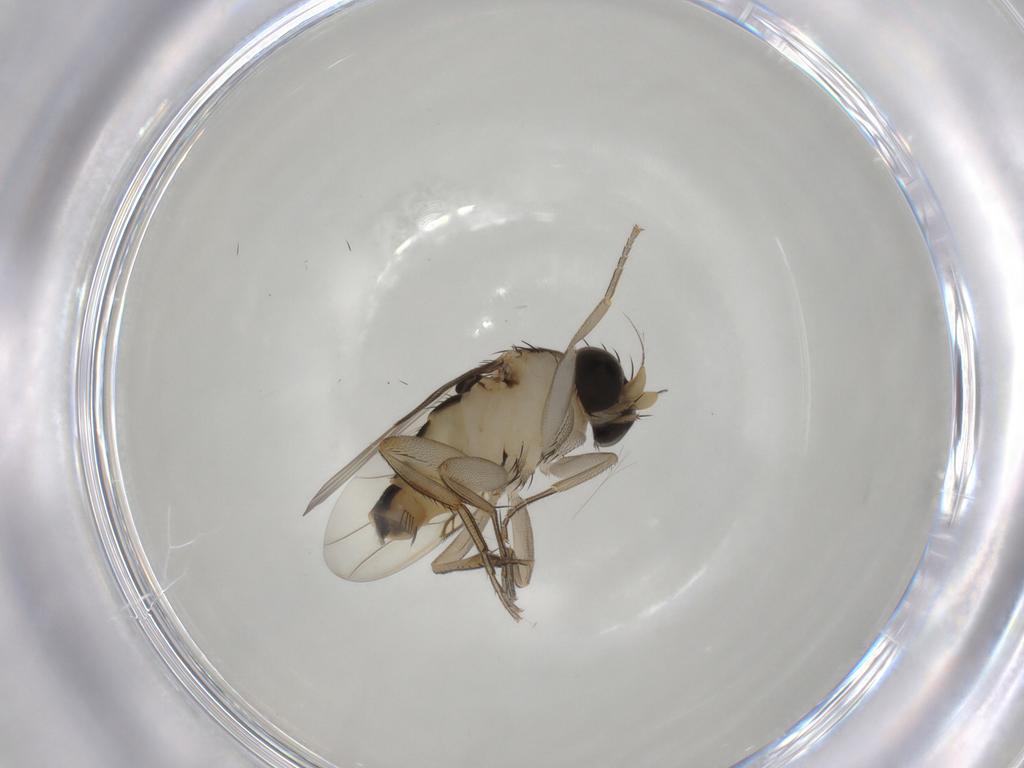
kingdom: Animalia
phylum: Arthropoda
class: Insecta
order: Diptera
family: Phoridae
